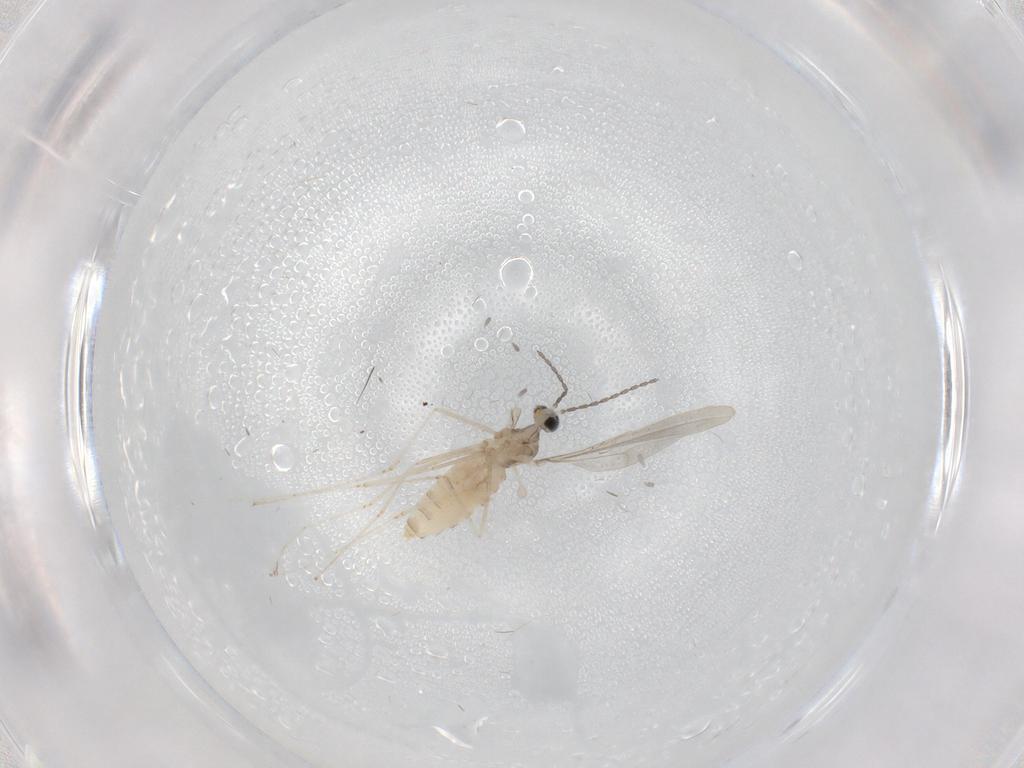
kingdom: Animalia
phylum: Arthropoda
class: Insecta
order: Diptera
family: Cecidomyiidae
